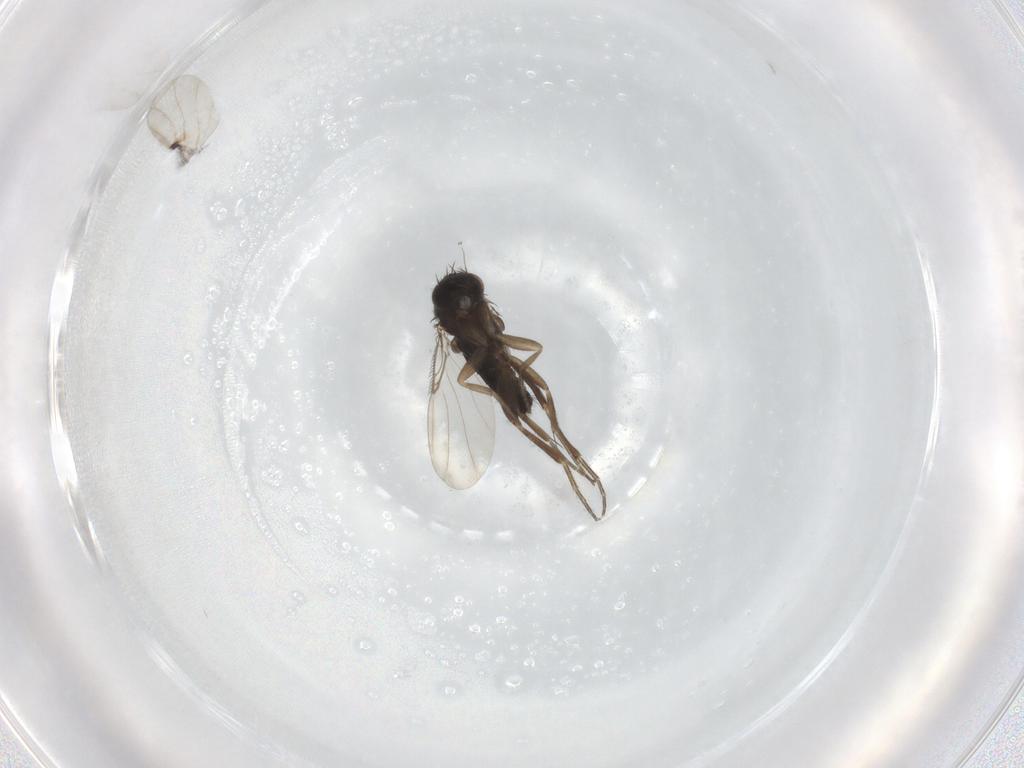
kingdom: Animalia
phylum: Arthropoda
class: Insecta
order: Diptera
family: Phoridae
